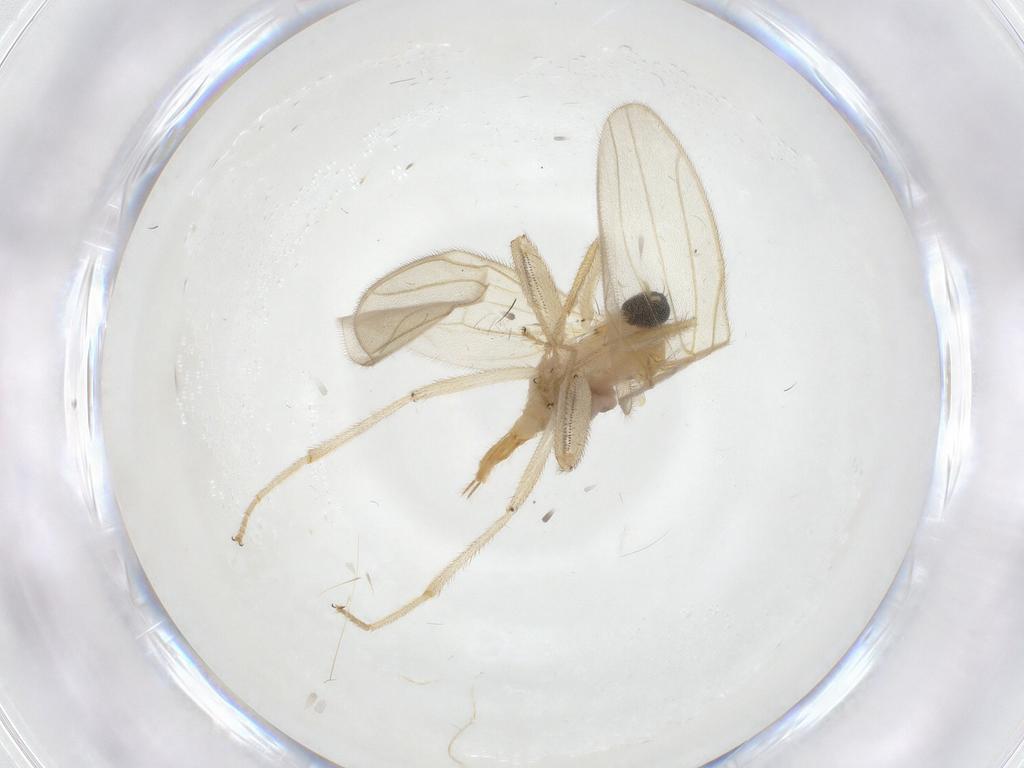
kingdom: Animalia
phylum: Arthropoda
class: Insecta
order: Diptera
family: Hybotidae
